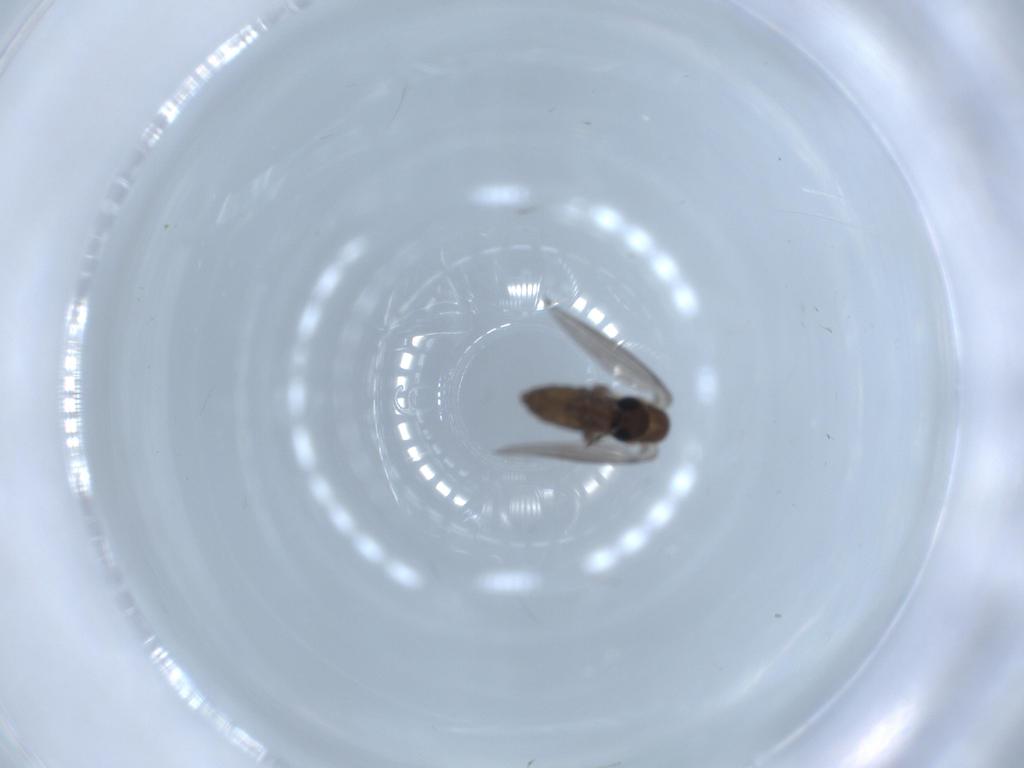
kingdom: Animalia
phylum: Arthropoda
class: Insecta
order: Diptera
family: Psychodidae
